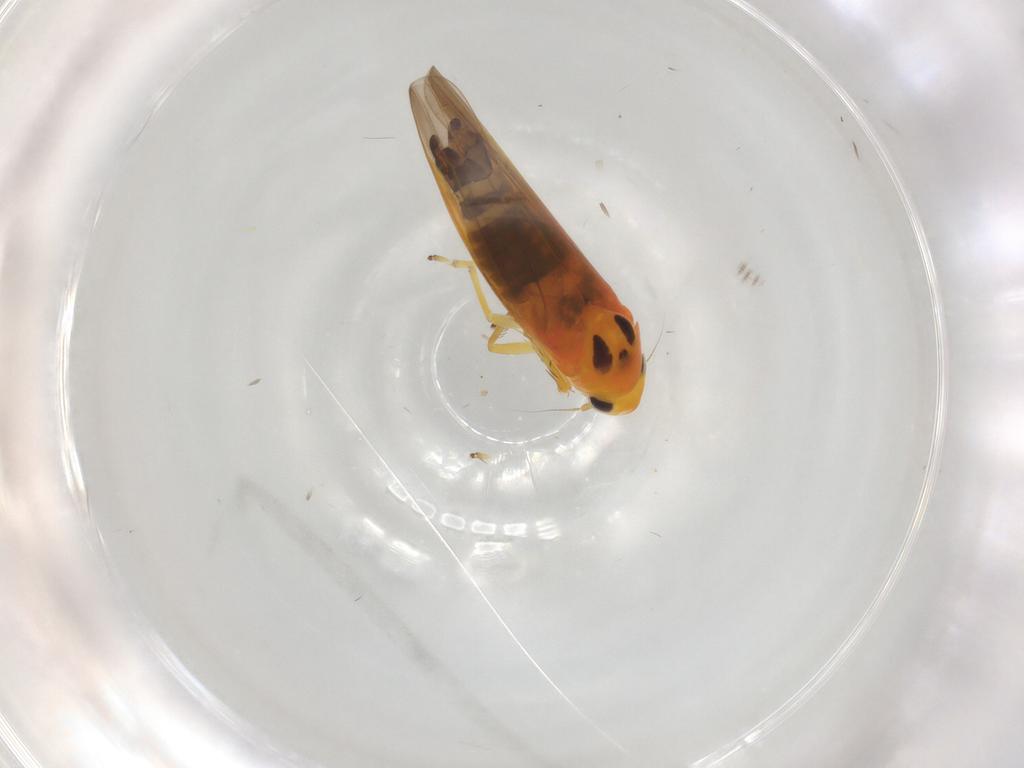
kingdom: Animalia
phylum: Arthropoda
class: Insecta
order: Hemiptera
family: Cicadellidae
